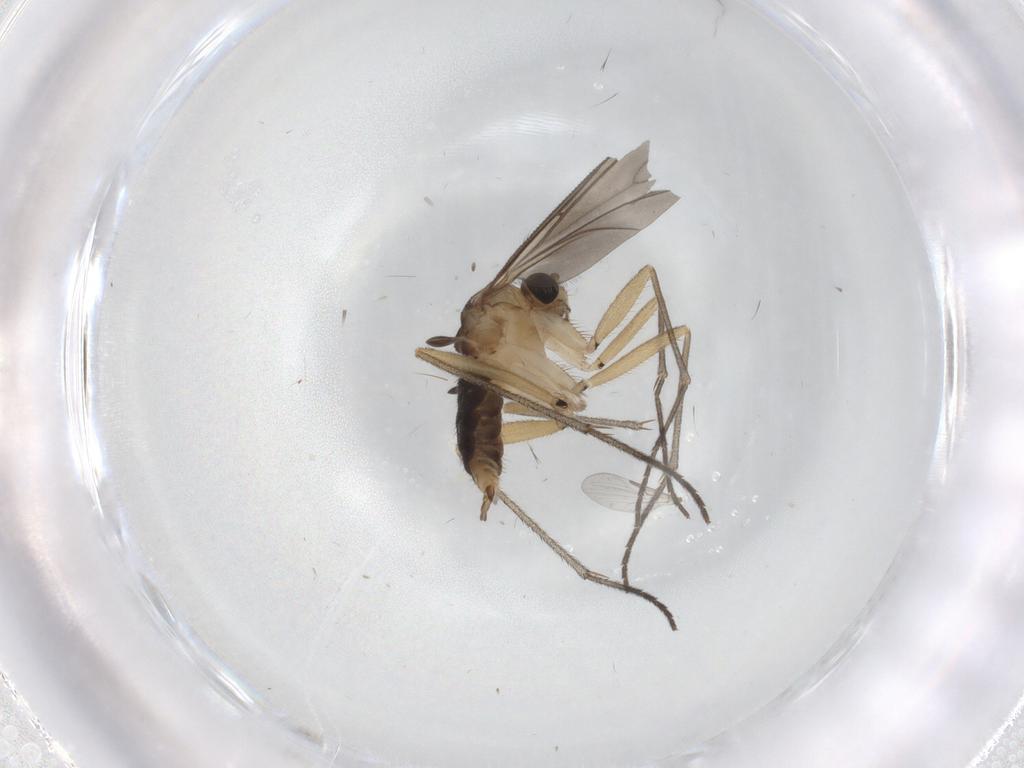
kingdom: Animalia
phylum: Arthropoda
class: Insecta
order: Diptera
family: Sciaridae
